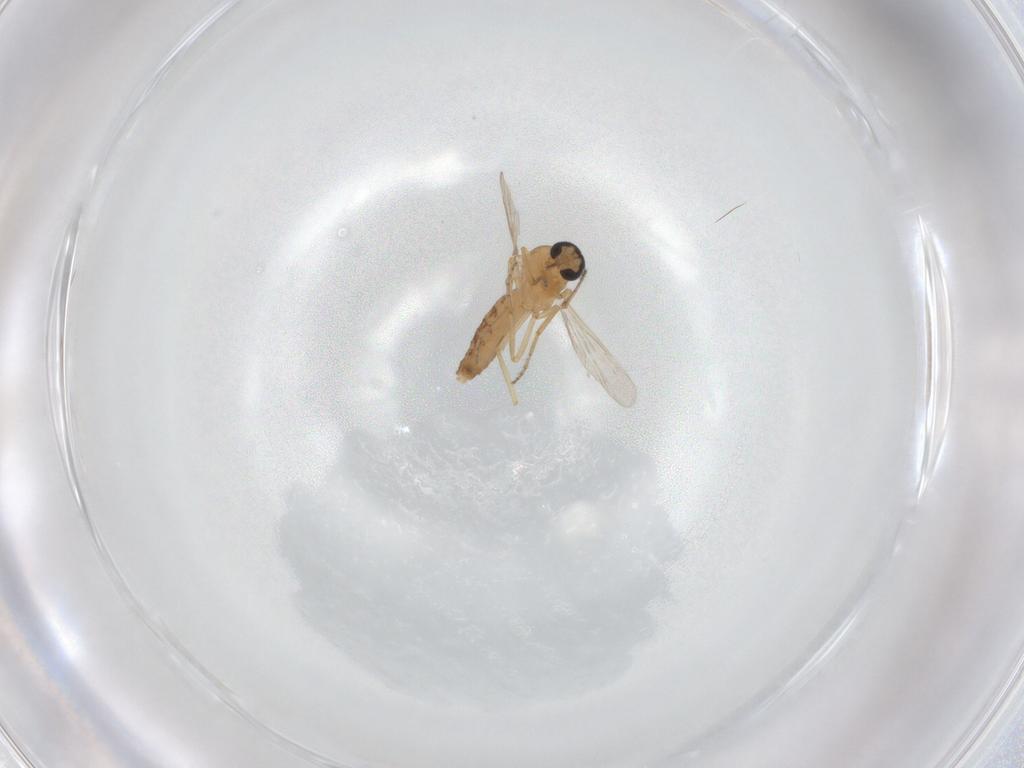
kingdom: Animalia
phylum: Arthropoda
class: Insecta
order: Diptera
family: Ceratopogonidae
